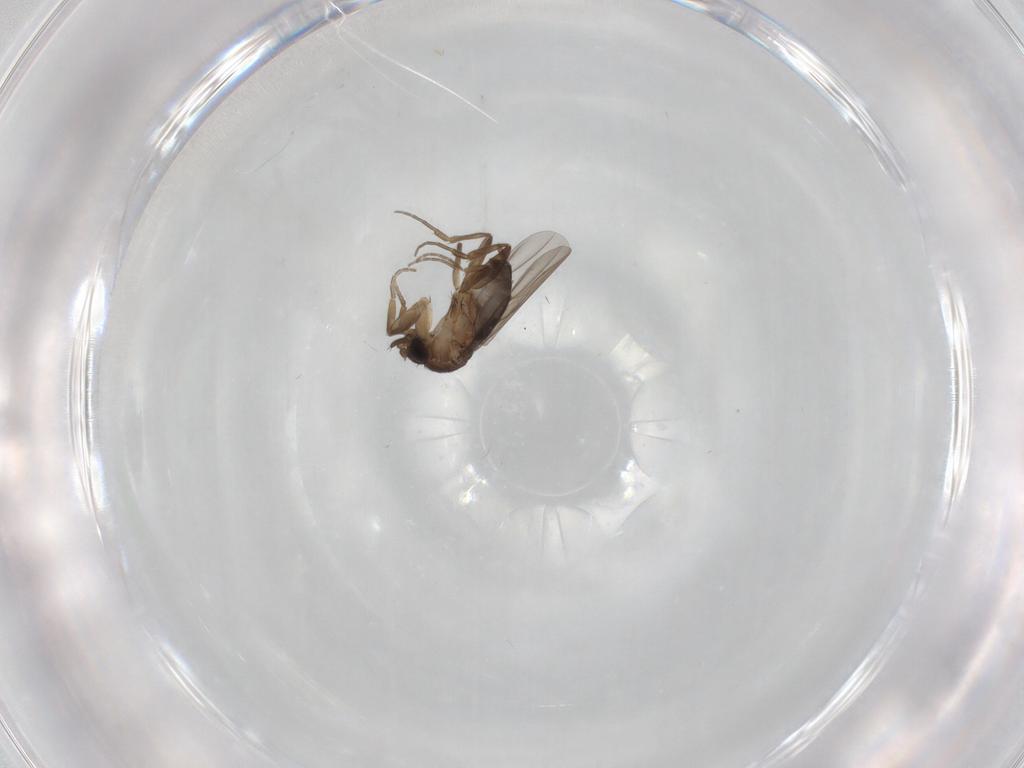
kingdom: Animalia
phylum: Arthropoda
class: Insecta
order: Diptera
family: Phoridae
